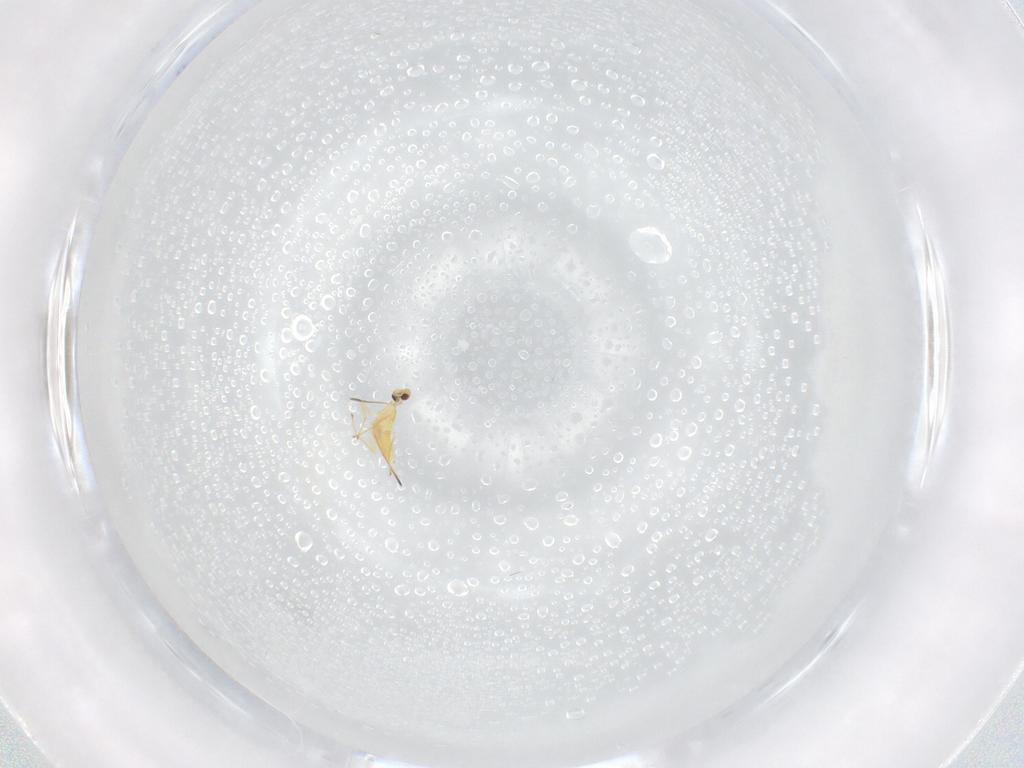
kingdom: Animalia
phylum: Arthropoda
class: Insecta
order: Hymenoptera
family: Mymaridae
